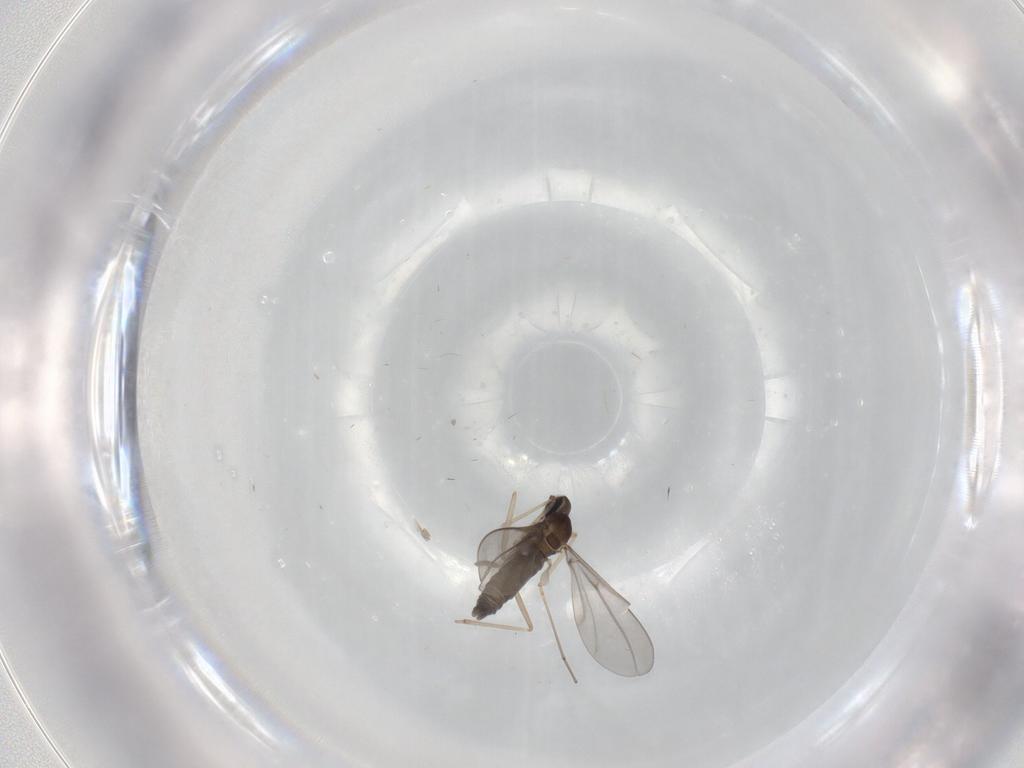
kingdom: Animalia
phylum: Arthropoda
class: Insecta
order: Diptera
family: Cecidomyiidae
